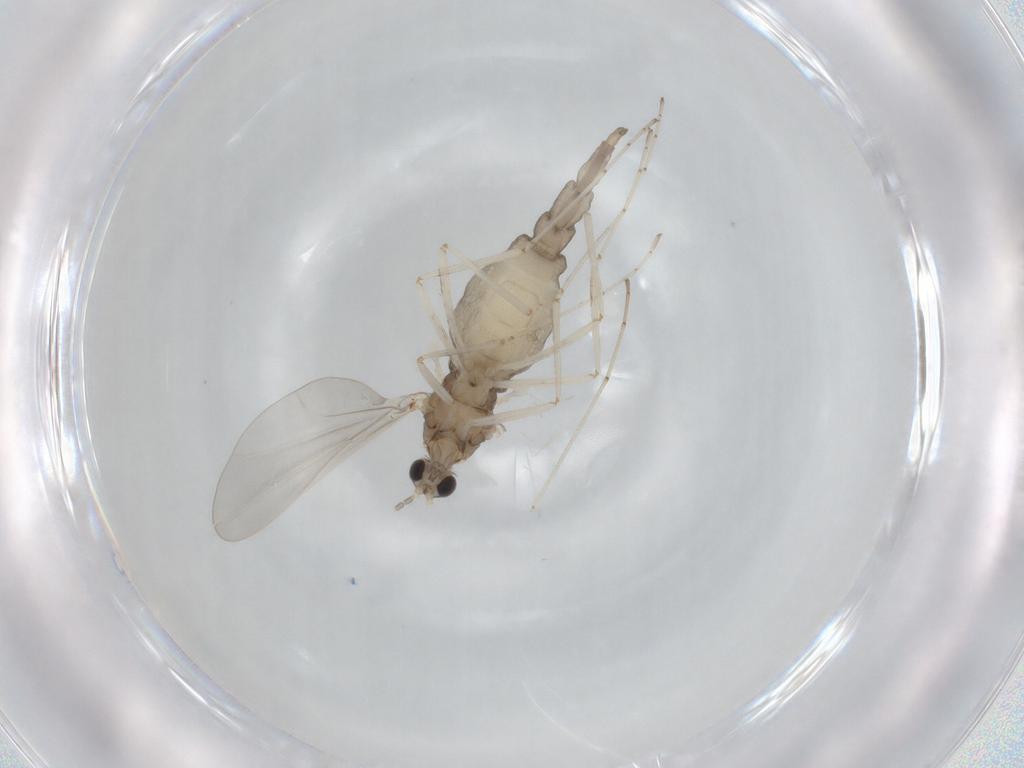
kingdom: Animalia
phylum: Arthropoda
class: Insecta
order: Diptera
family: Cecidomyiidae
